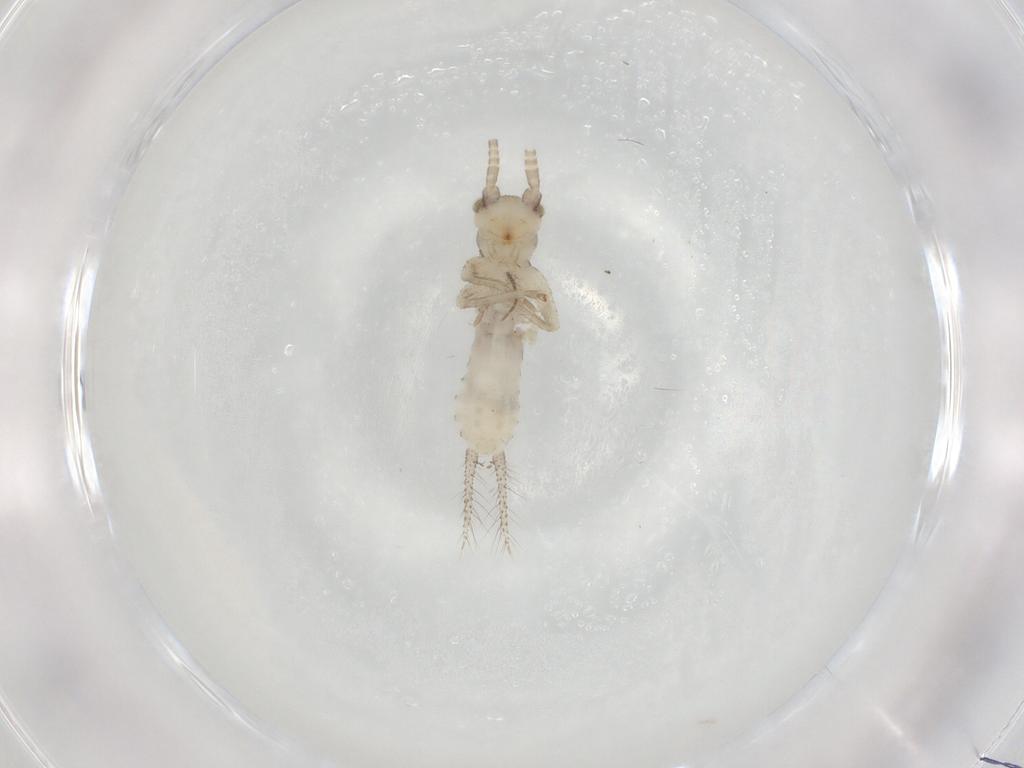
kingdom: Animalia
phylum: Arthropoda
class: Insecta
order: Orthoptera
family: Gryllidae
